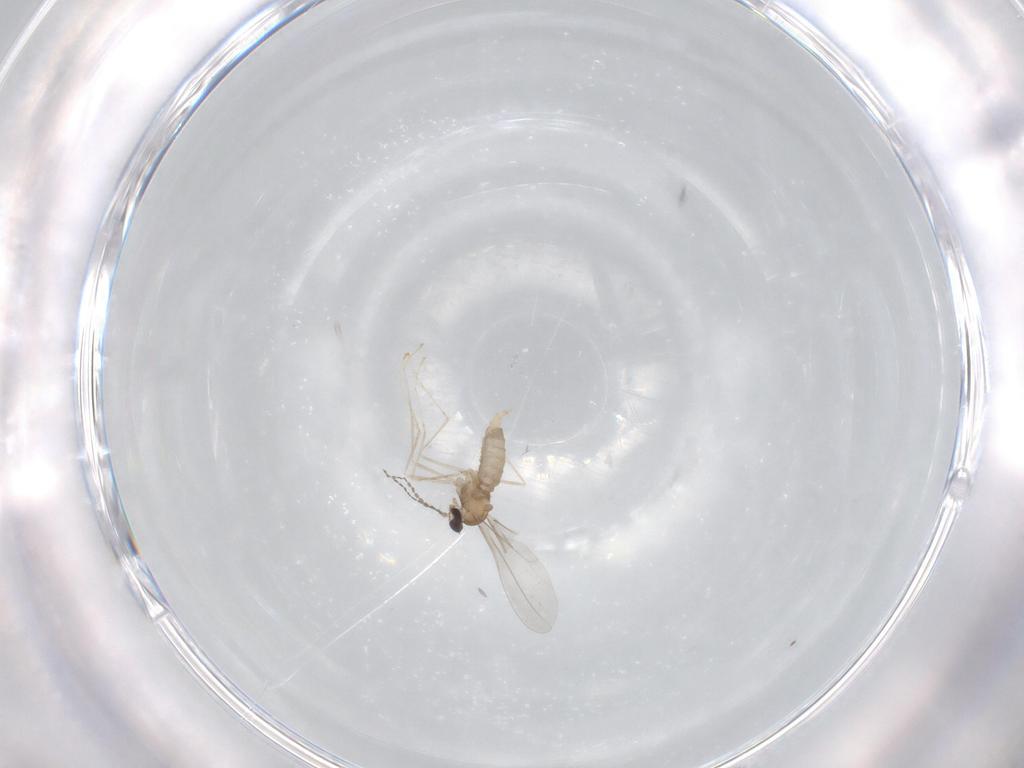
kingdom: Animalia
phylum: Arthropoda
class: Insecta
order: Diptera
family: Cecidomyiidae
